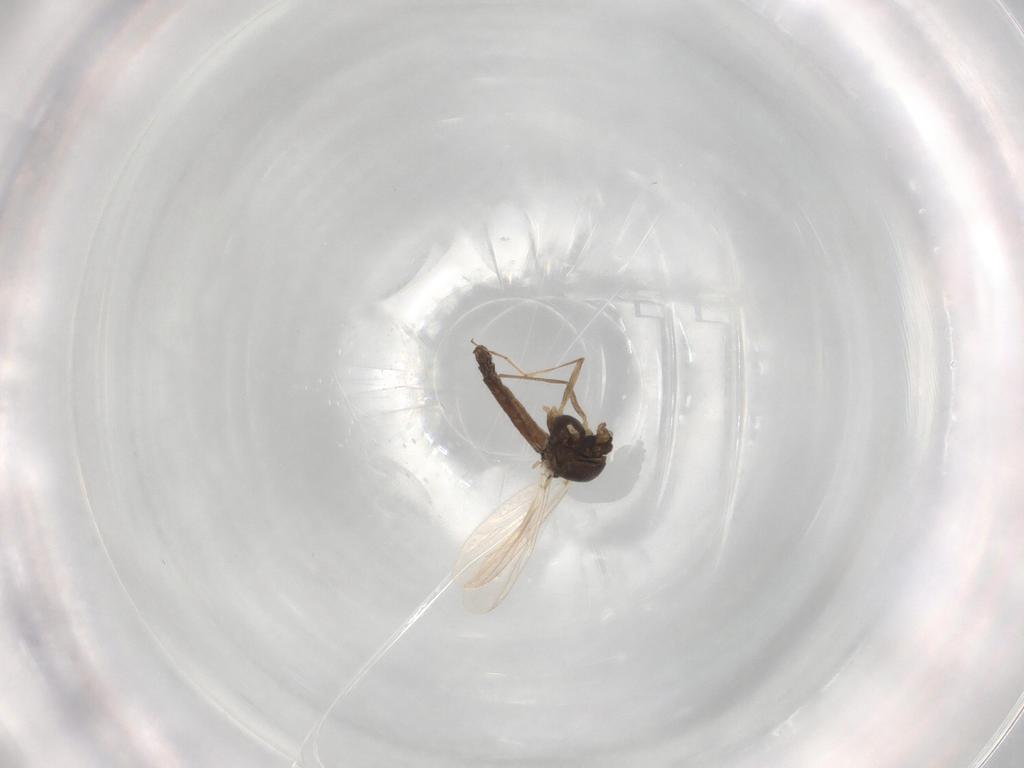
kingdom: Animalia
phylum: Arthropoda
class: Insecta
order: Diptera
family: Cecidomyiidae
